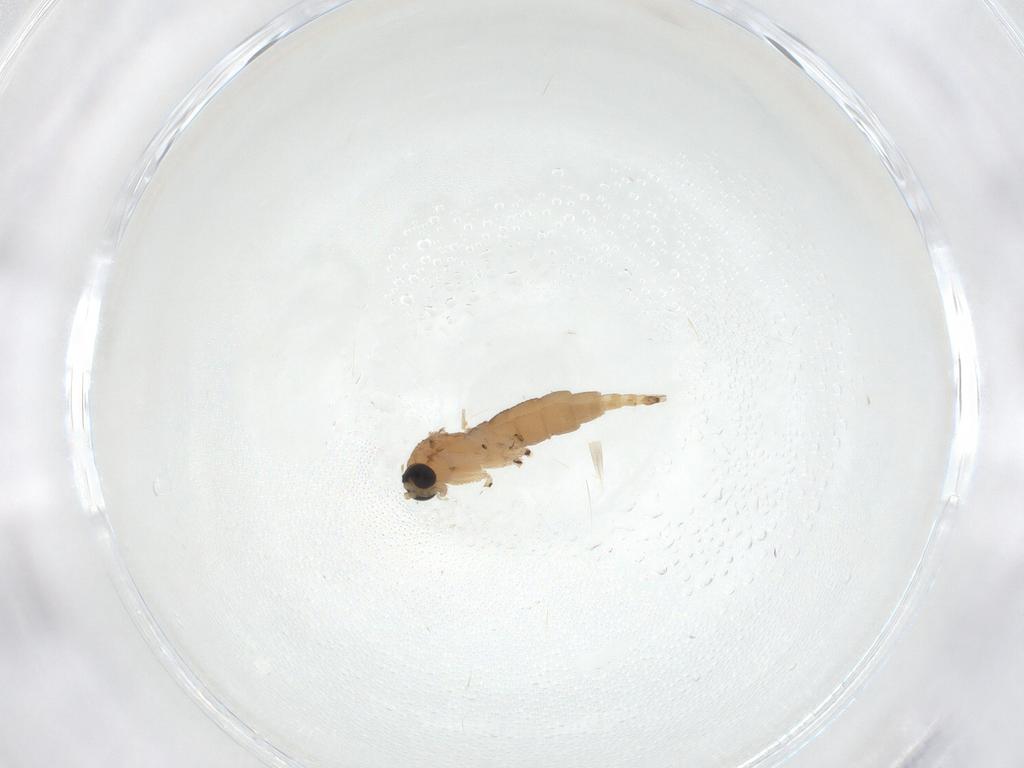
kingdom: Animalia
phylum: Arthropoda
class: Insecta
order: Diptera
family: Sciaridae
